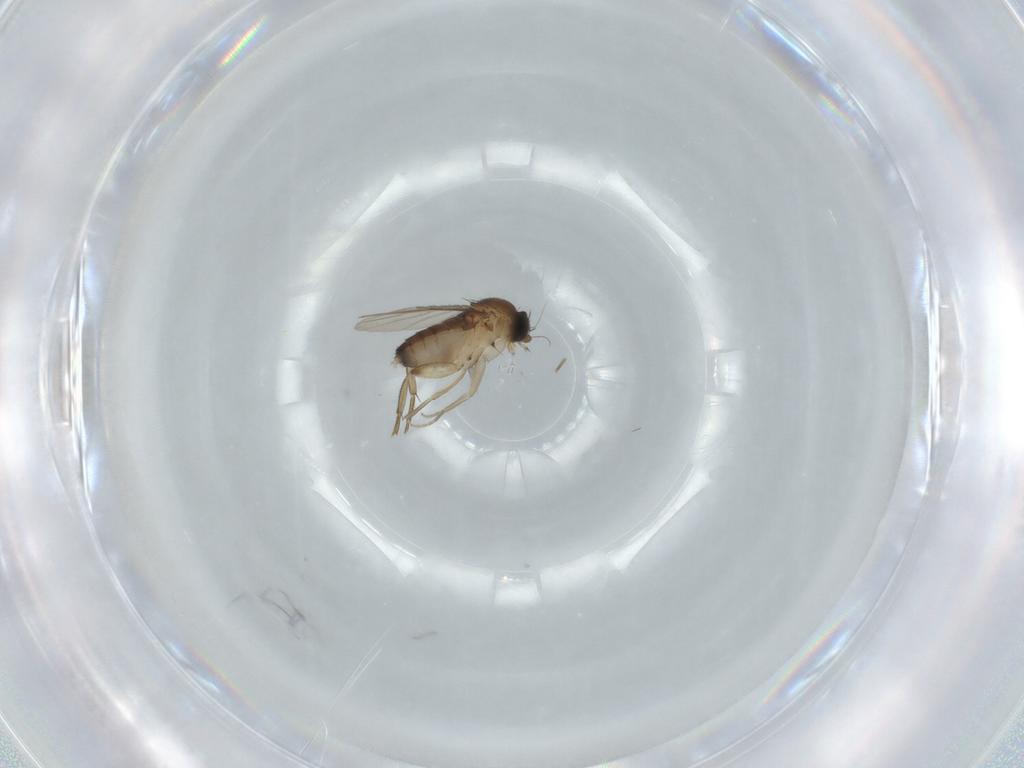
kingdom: Animalia
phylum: Arthropoda
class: Insecta
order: Diptera
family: Phoridae
